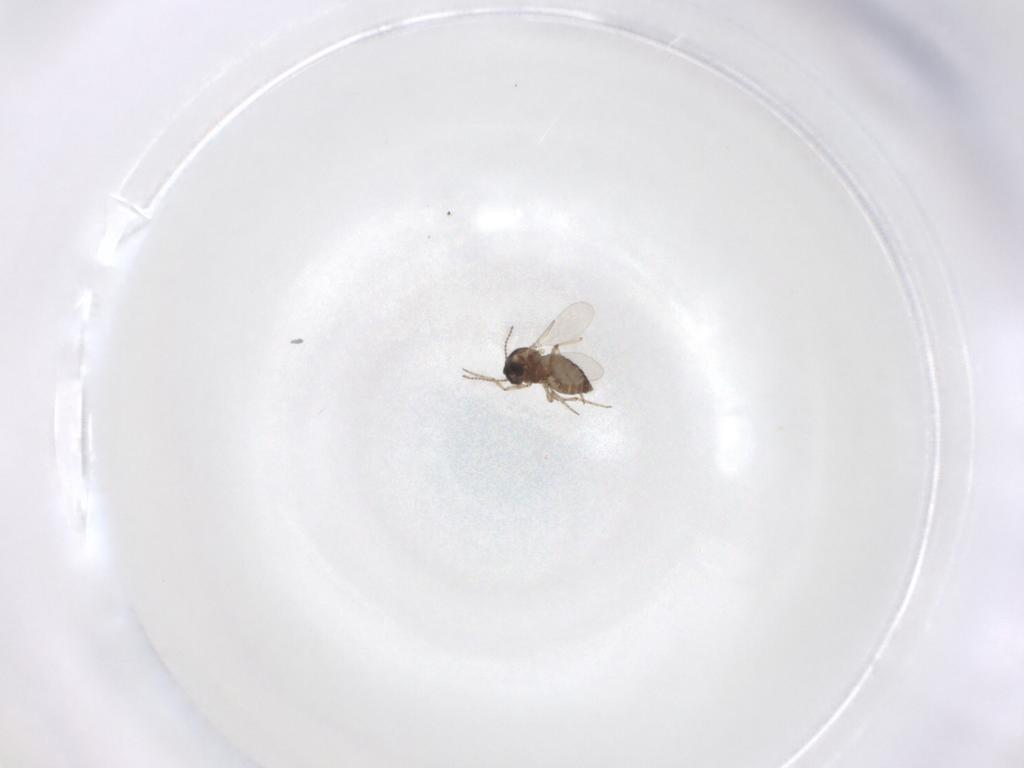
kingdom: Animalia
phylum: Arthropoda
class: Insecta
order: Diptera
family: Ceratopogonidae
